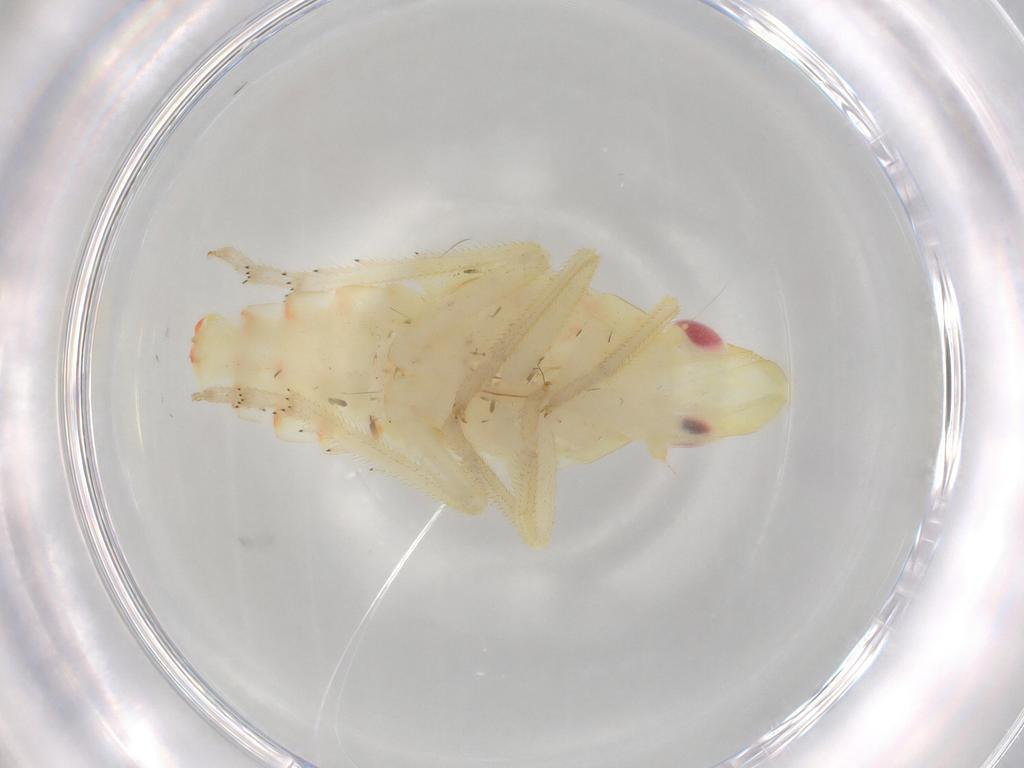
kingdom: Animalia
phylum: Arthropoda
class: Insecta
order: Hemiptera
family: Tropiduchidae
